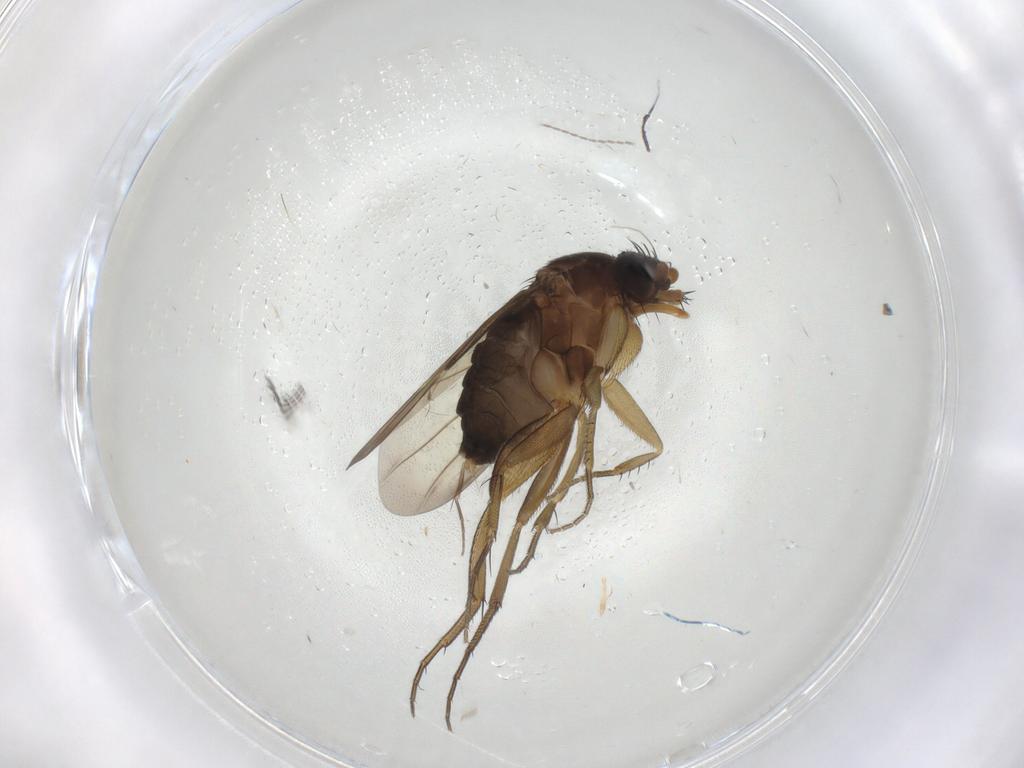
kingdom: Animalia
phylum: Arthropoda
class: Insecta
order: Diptera
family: Phoridae
